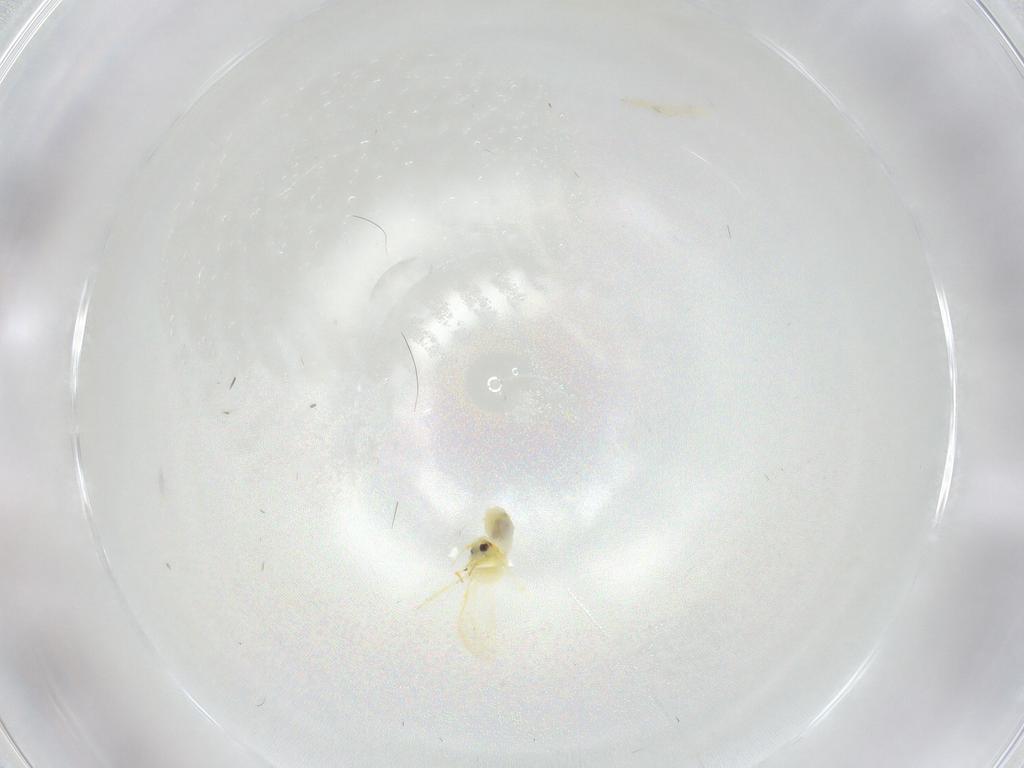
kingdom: Animalia
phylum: Arthropoda
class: Insecta
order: Hemiptera
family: Aleyrodidae
